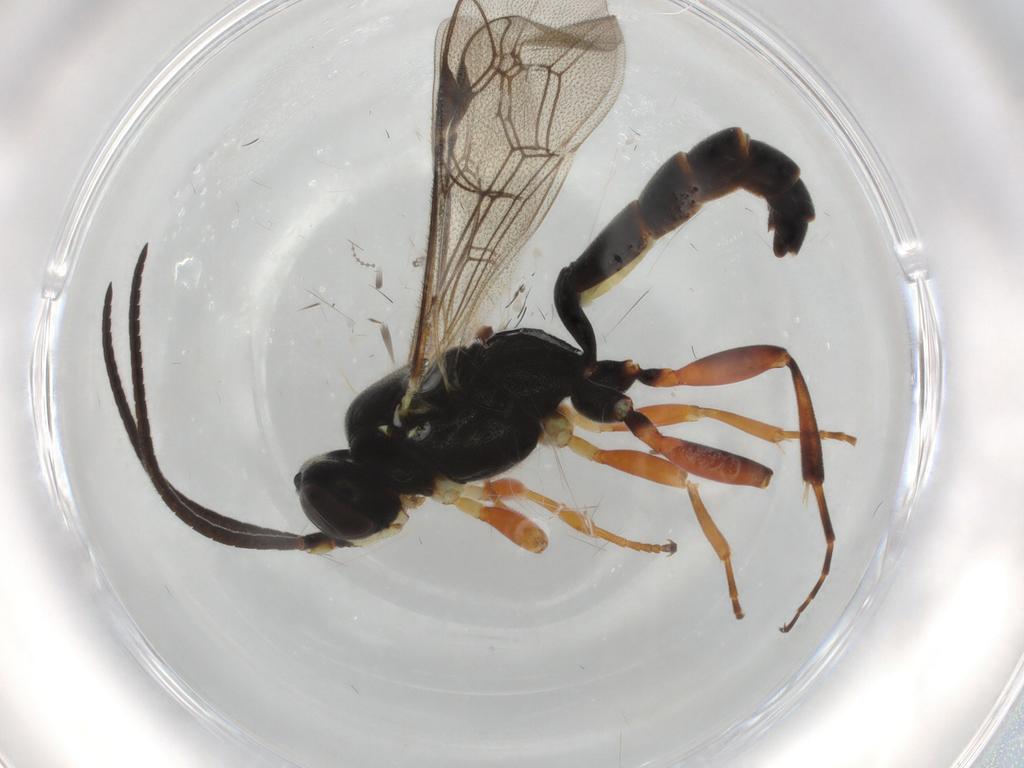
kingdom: Animalia
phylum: Arthropoda
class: Insecta
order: Hymenoptera
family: Ichneumonidae
